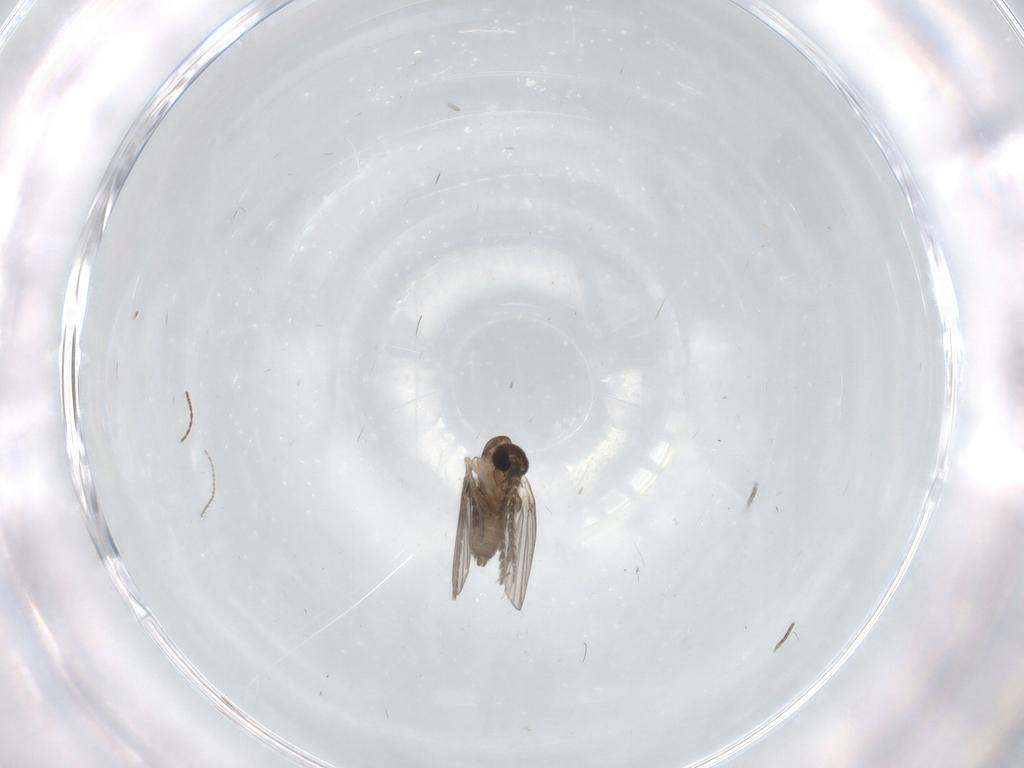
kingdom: Animalia
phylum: Arthropoda
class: Insecta
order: Diptera
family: Cecidomyiidae
